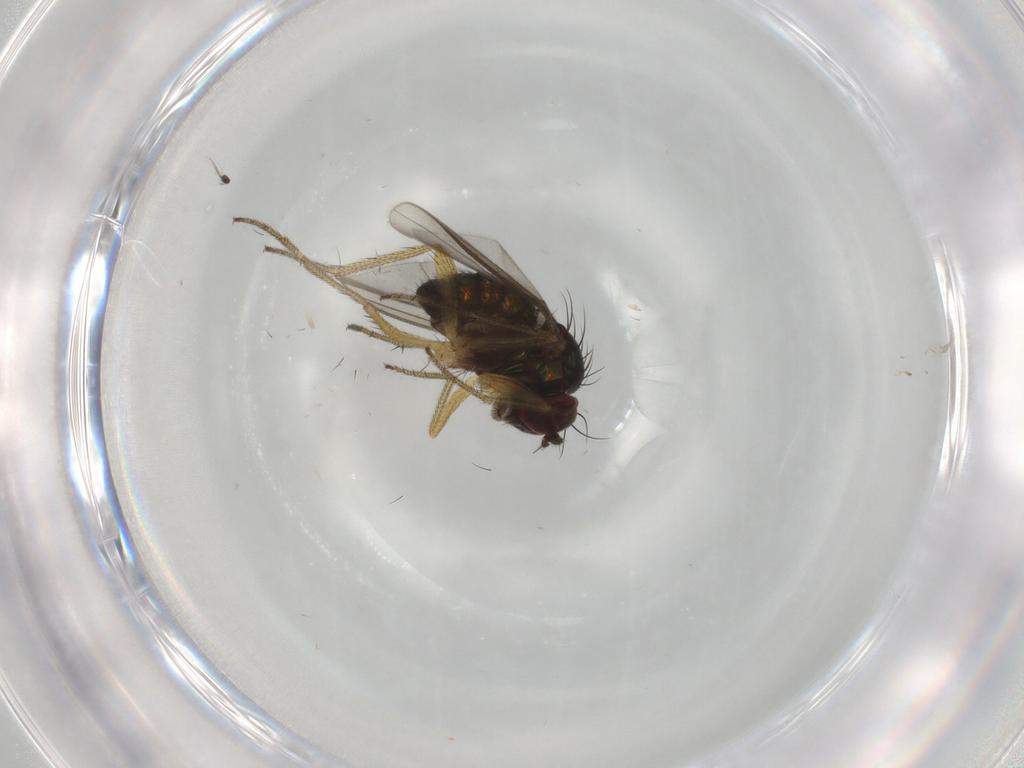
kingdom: Animalia
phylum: Arthropoda
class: Insecta
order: Diptera
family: Dolichopodidae
